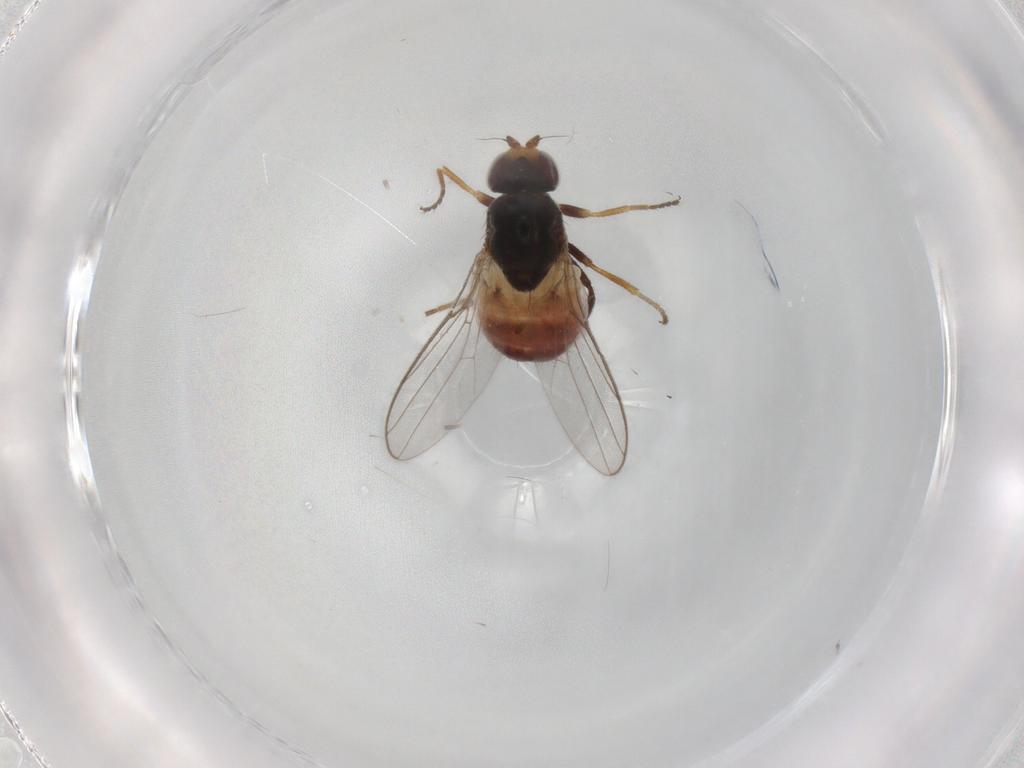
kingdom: Animalia
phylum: Arthropoda
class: Insecta
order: Diptera
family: Chloropidae
